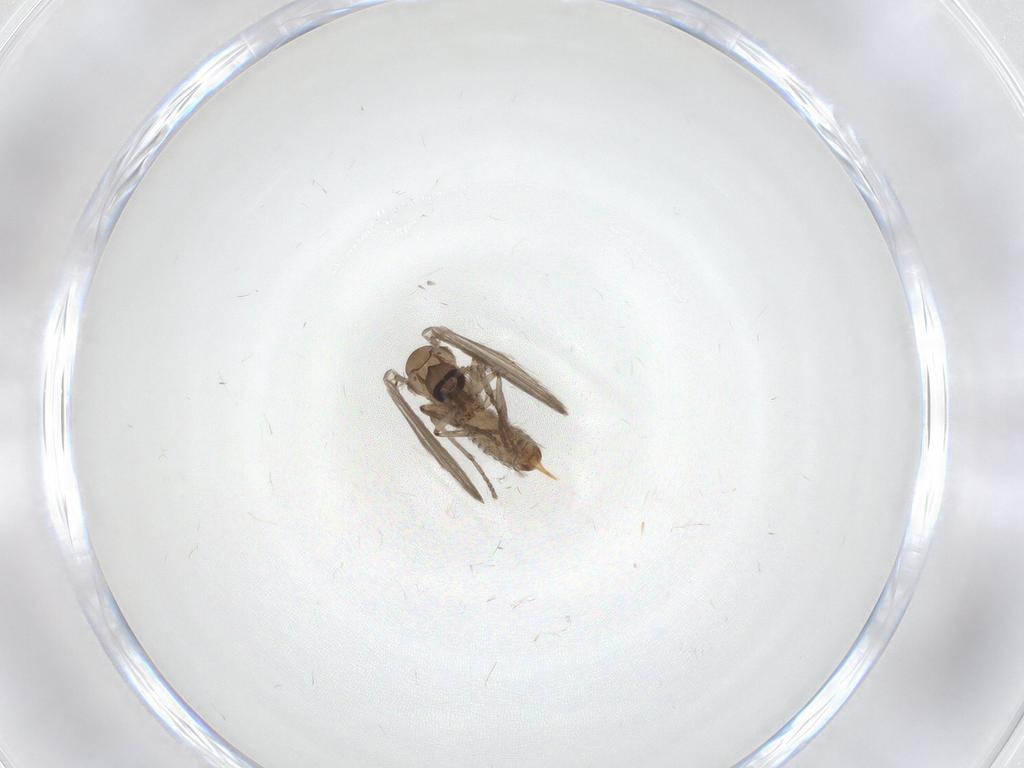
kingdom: Animalia
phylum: Arthropoda
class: Insecta
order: Diptera
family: Psychodidae
